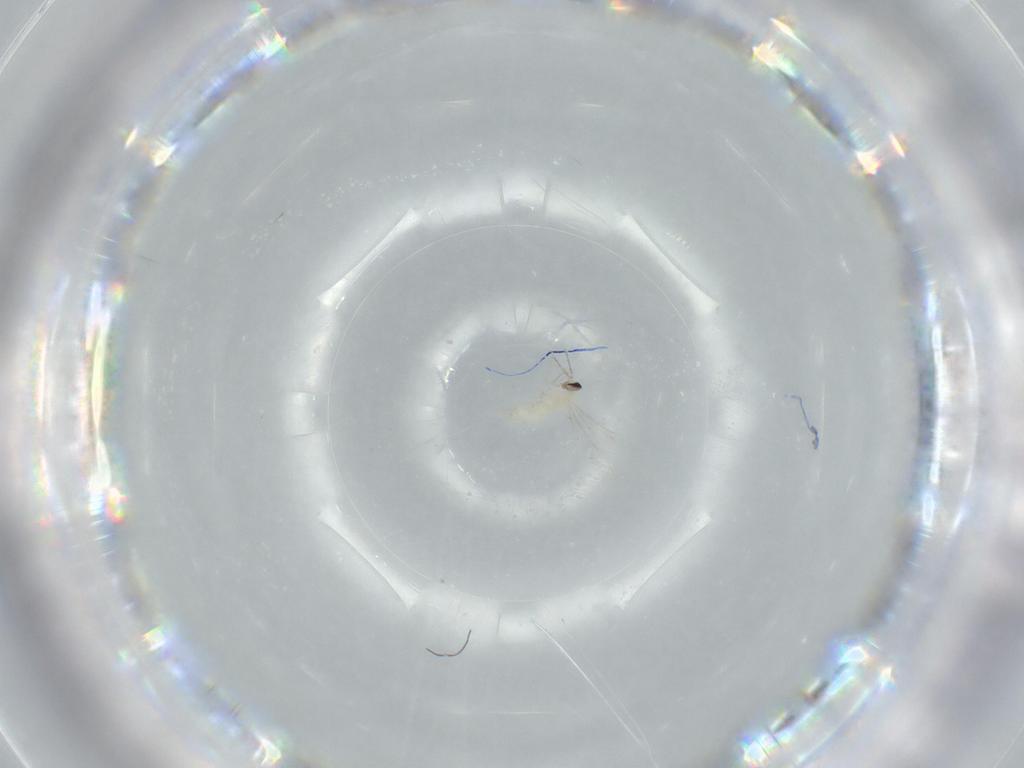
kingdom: Animalia
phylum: Arthropoda
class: Insecta
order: Diptera
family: Cecidomyiidae
